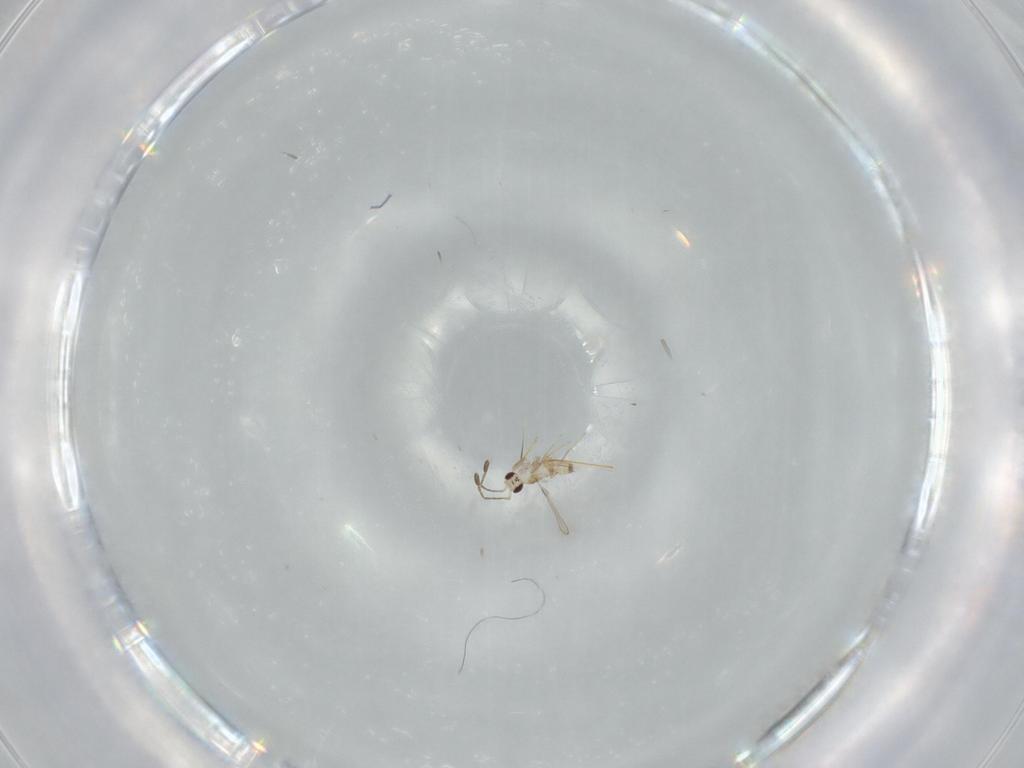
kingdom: Animalia
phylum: Arthropoda
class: Insecta
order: Hymenoptera
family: Mymaridae
